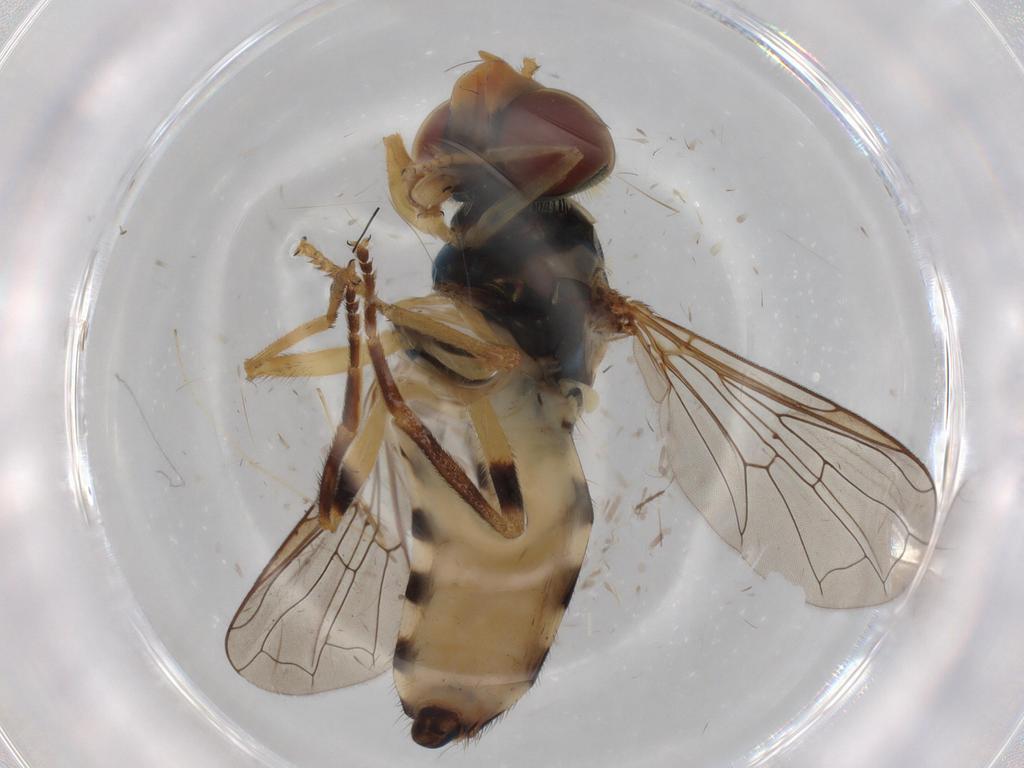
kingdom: Animalia
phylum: Arthropoda
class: Insecta
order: Diptera
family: Syrphidae
